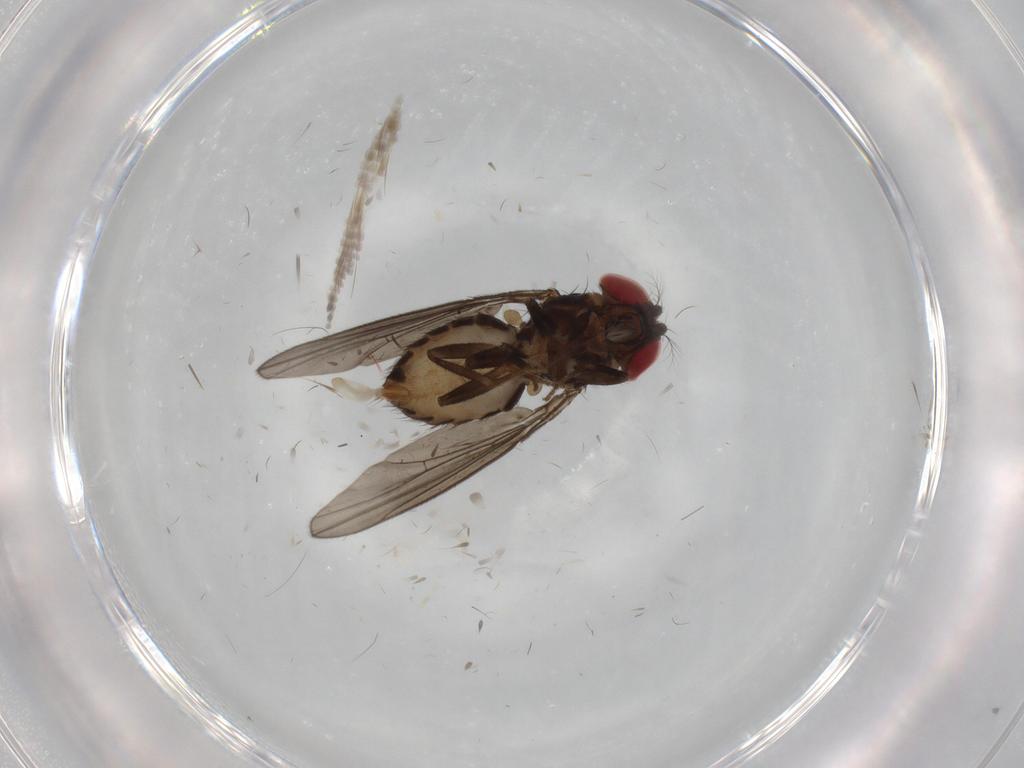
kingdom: Animalia
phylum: Arthropoda
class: Insecta
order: Diptera
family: Drosophilidae
